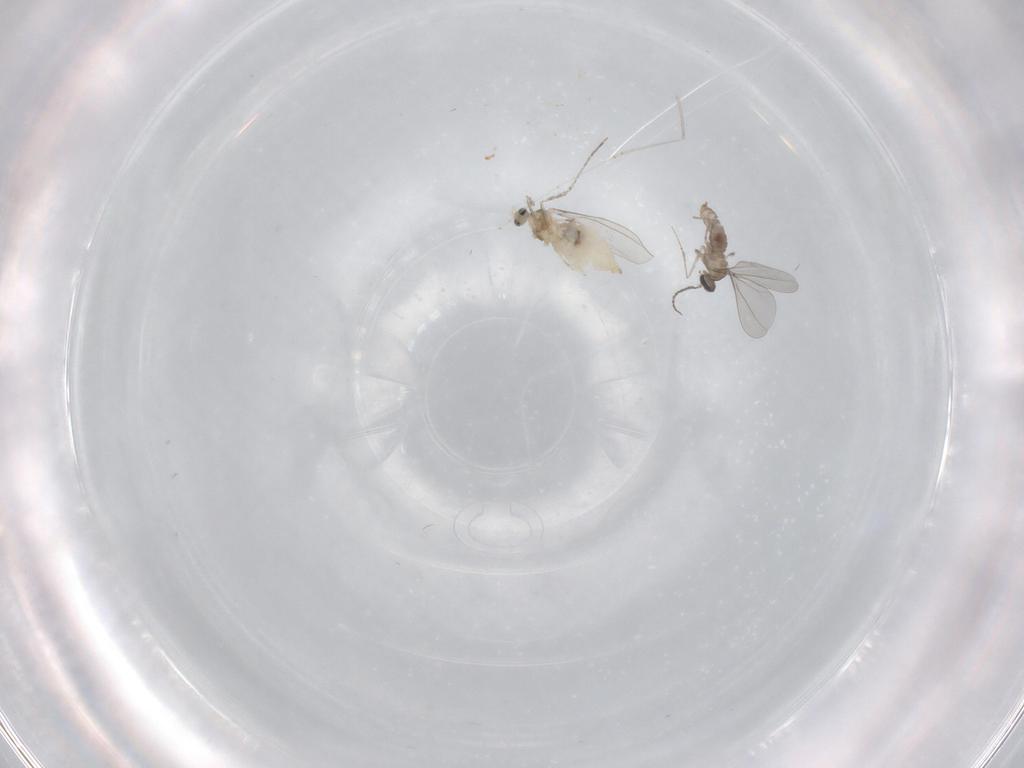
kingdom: Animalia
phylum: Arthropoda
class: Insecta
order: Diptera
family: Cecidomyiidae
